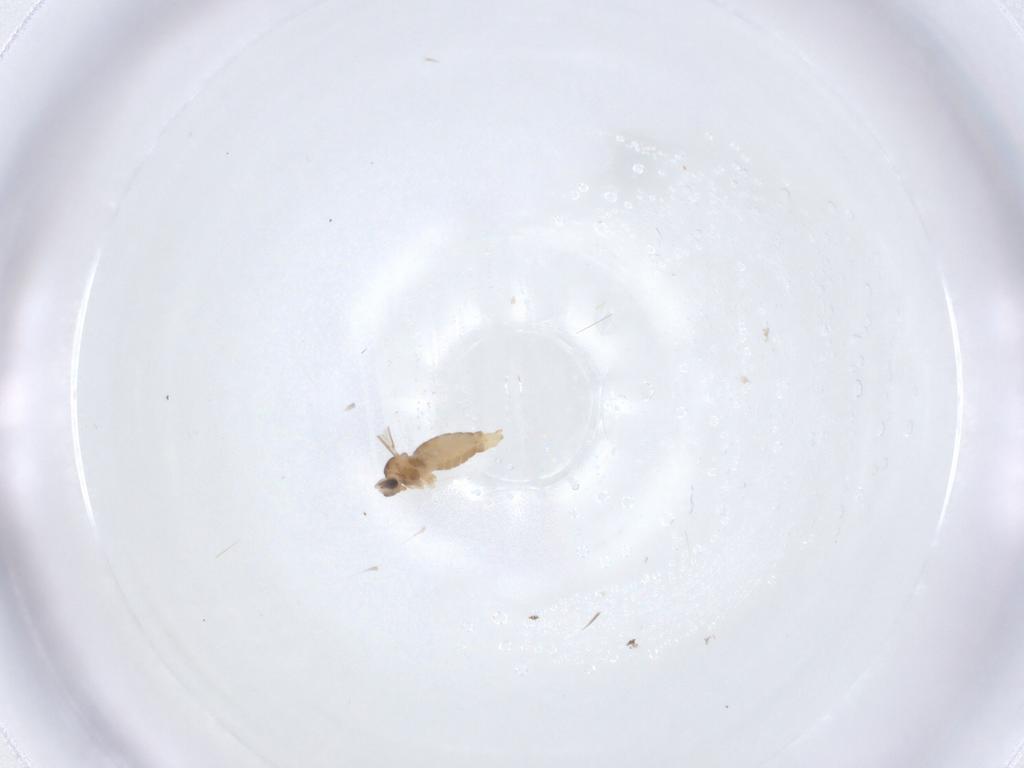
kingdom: Animalia
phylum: Arthropoda
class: Insecta
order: Diptera
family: Cecidomyiidae
